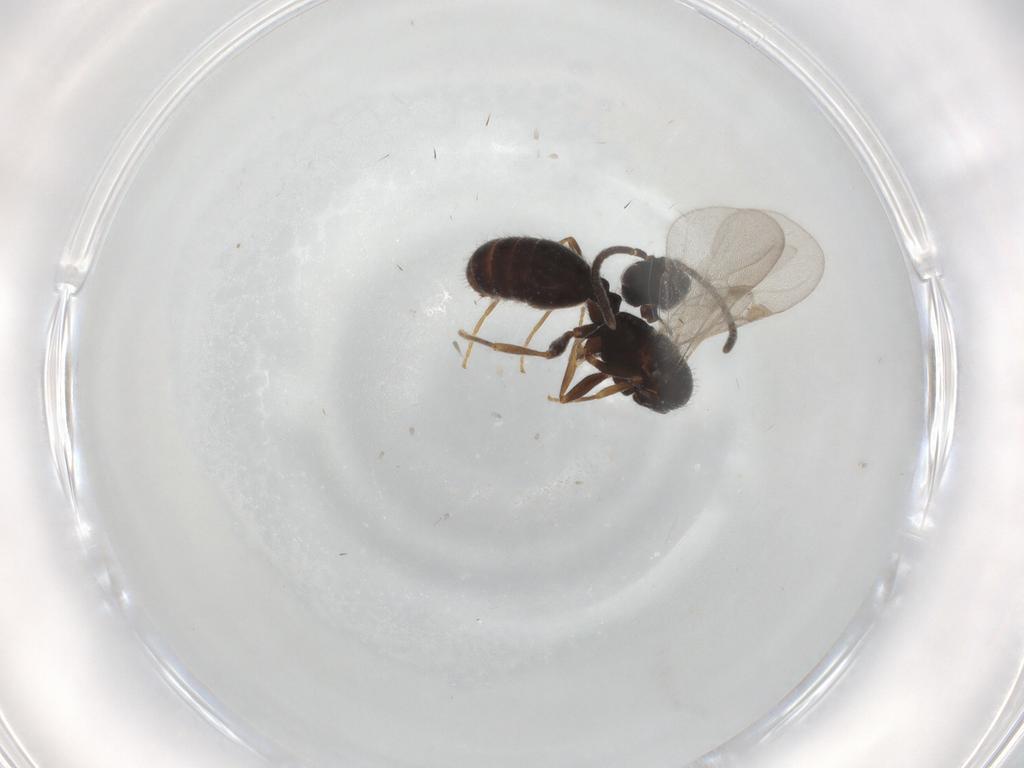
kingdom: Animalia
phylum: Arthropoda
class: Insecta
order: Hymenoptera
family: Formicidae
